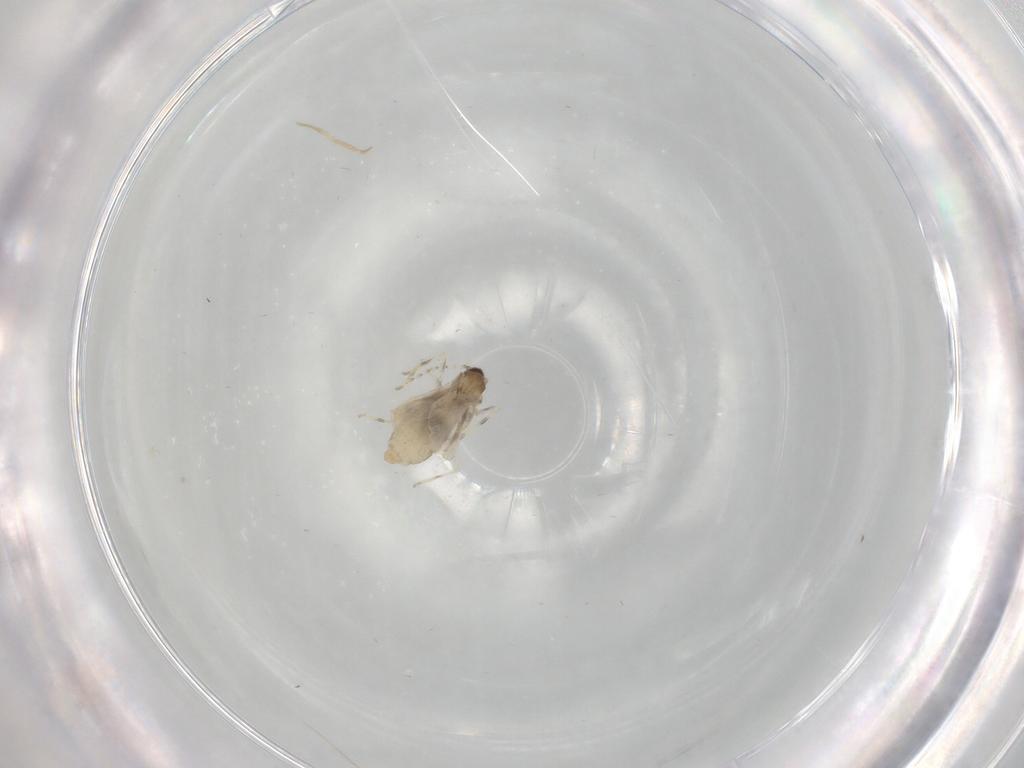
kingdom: Animalia
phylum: Arthropoda
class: Insecta
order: Diptera
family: Cecidomyiidae
